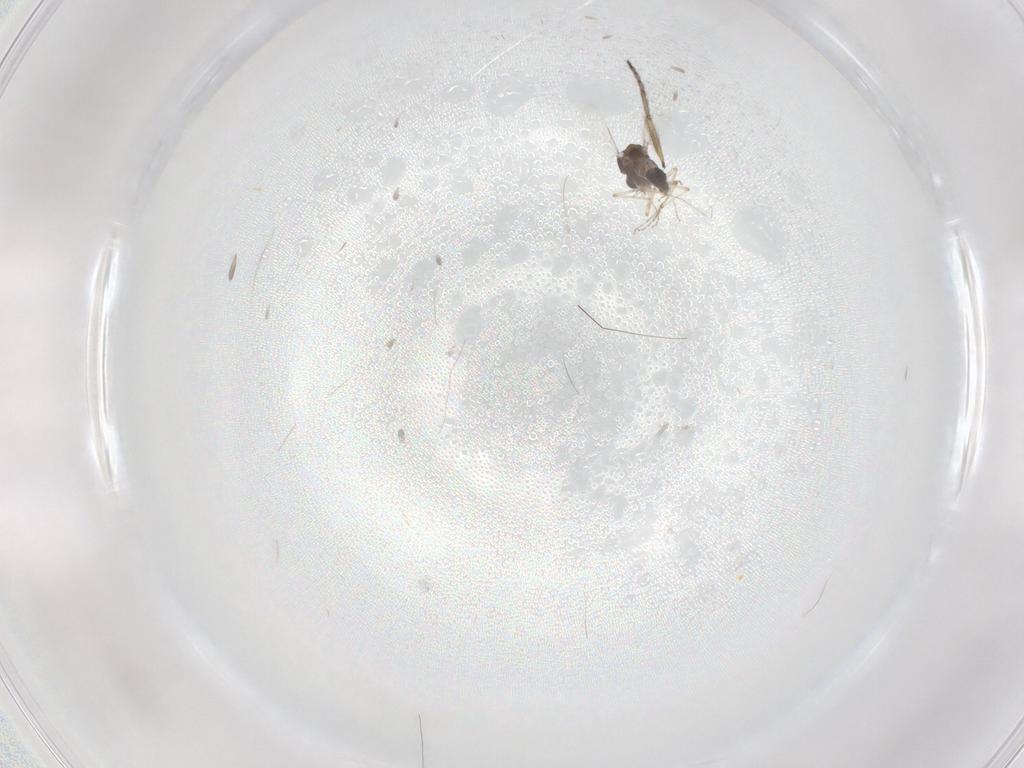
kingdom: Animalia
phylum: Arthropoda
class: Insecta
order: Diptera
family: Ceratopogonidae
